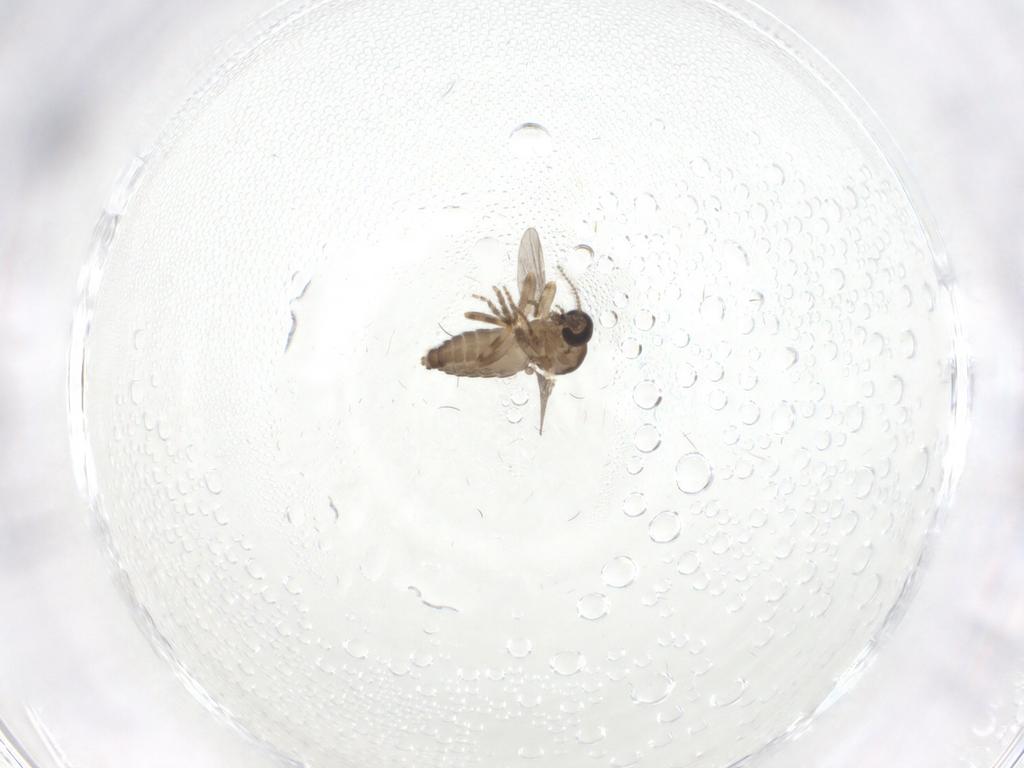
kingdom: Animalia
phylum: Arthropoda
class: Insecta
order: Diptera
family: Ceratopogonidae
